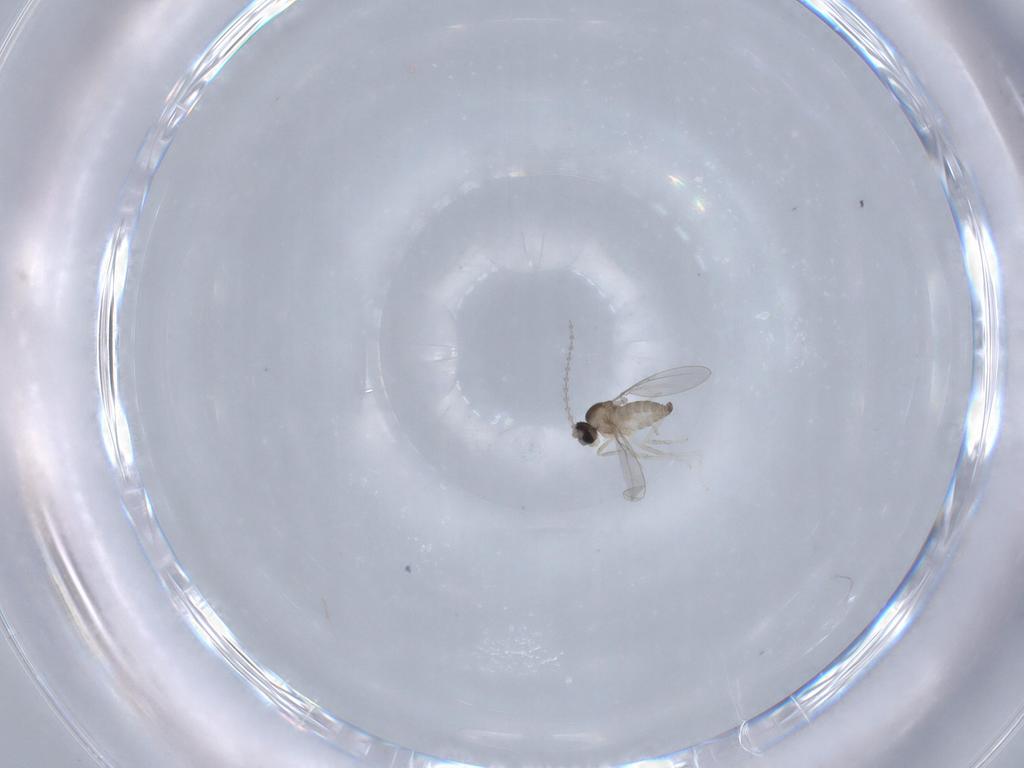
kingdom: Animalia
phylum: Arthropoda
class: Insecta
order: Diptera
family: Cecidomyiidae
